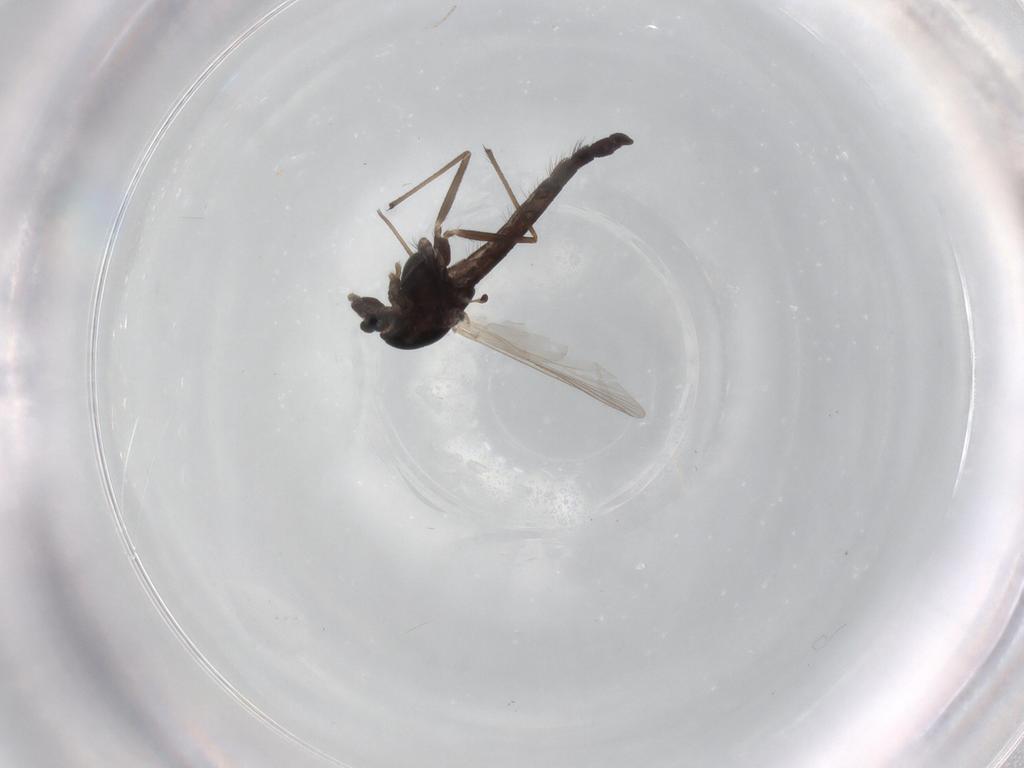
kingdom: Animalia
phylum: Arthropoda
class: Insecta
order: Diptera
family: Chironomidae
